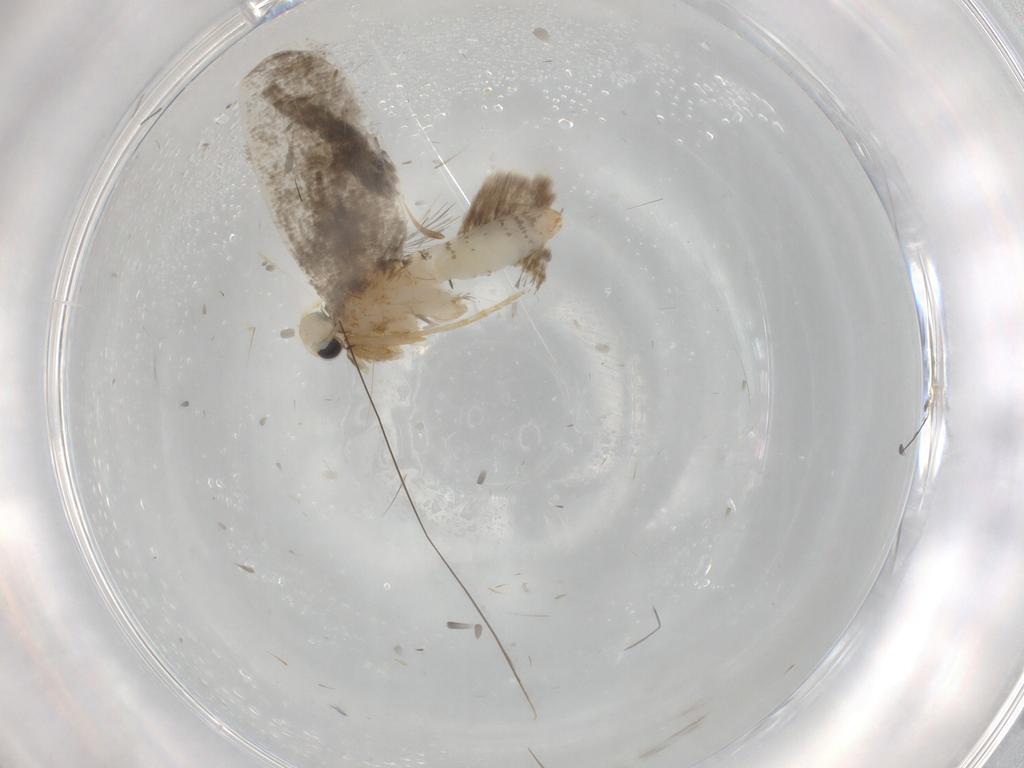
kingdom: Animalia
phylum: Arthropoda
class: Insecta
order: Lepidoptera
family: Psychidae
